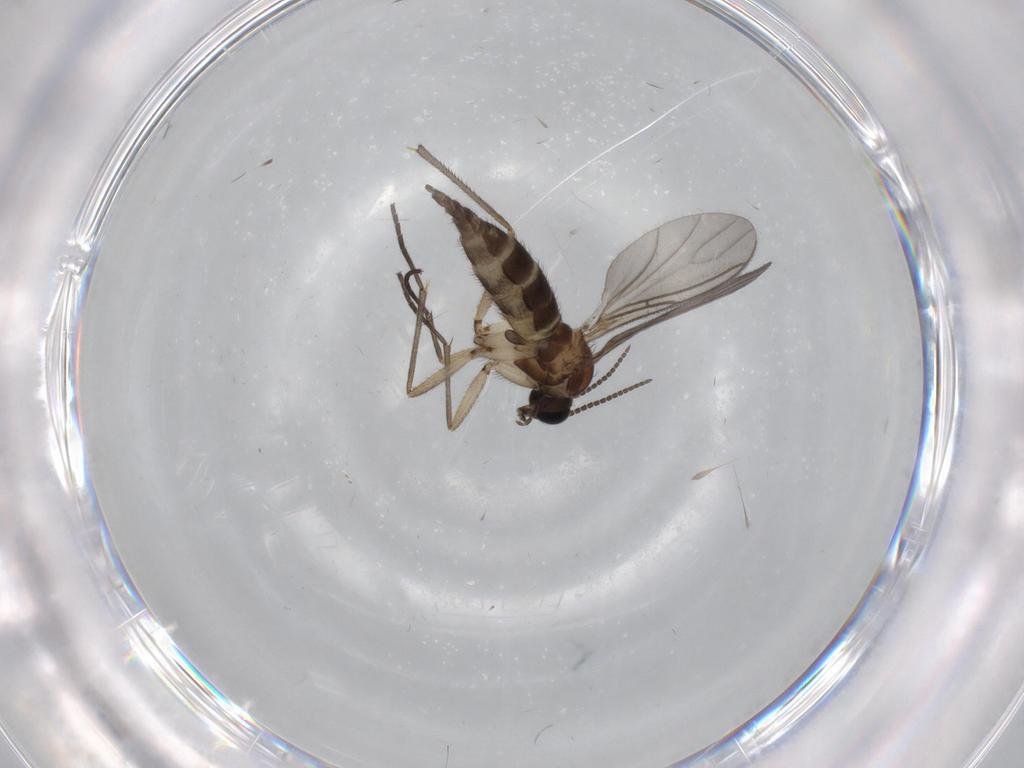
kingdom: Animalia
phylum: Arthropoda
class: Insecta
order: Diptera
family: Sciaridae
